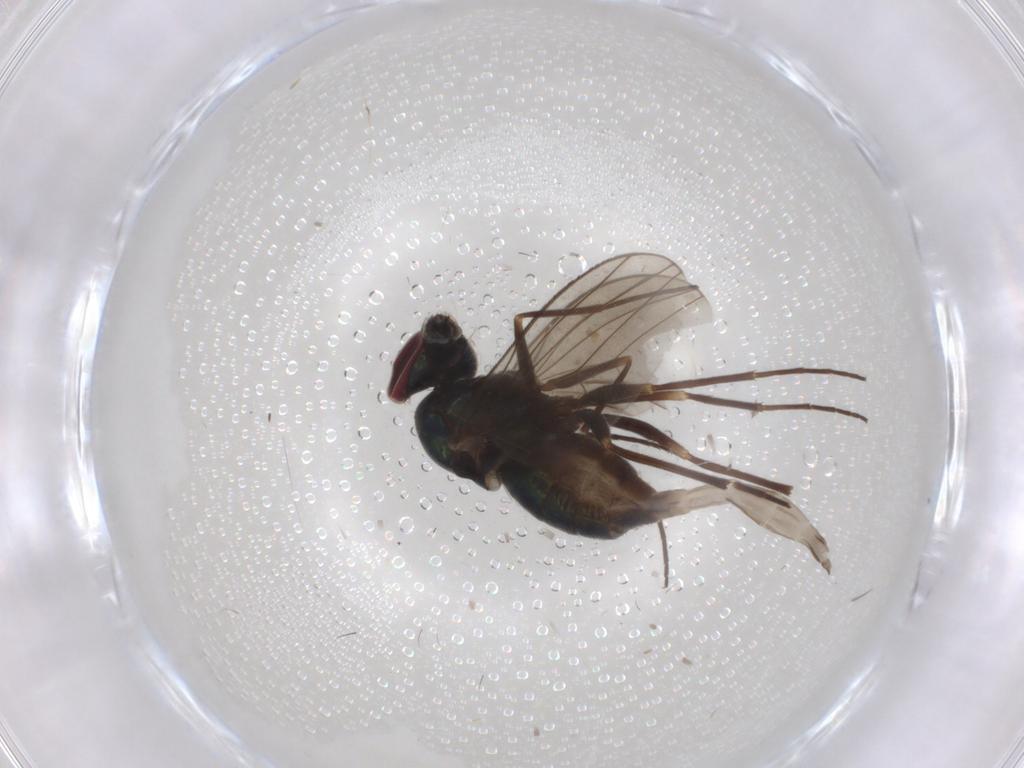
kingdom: Animalia
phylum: Arthropoda
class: Insecta
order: Diptera
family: Dolichopodidae
